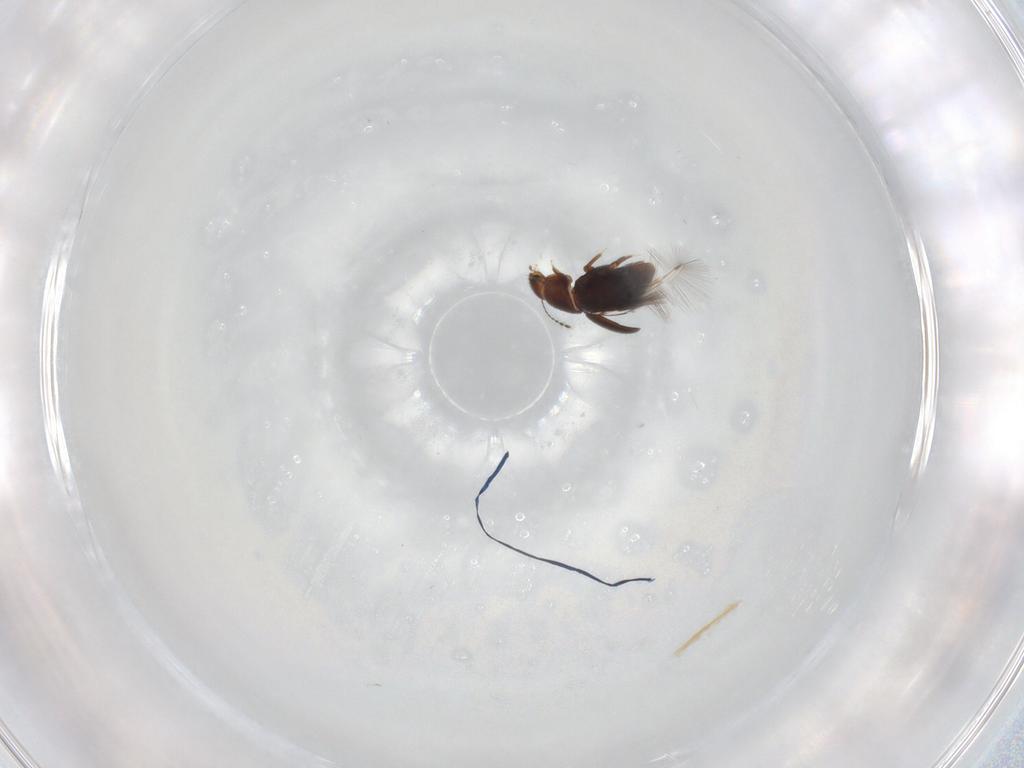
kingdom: Animalia
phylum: Arthropoda
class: Insecta
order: Coleoptera
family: Ptiliidae
